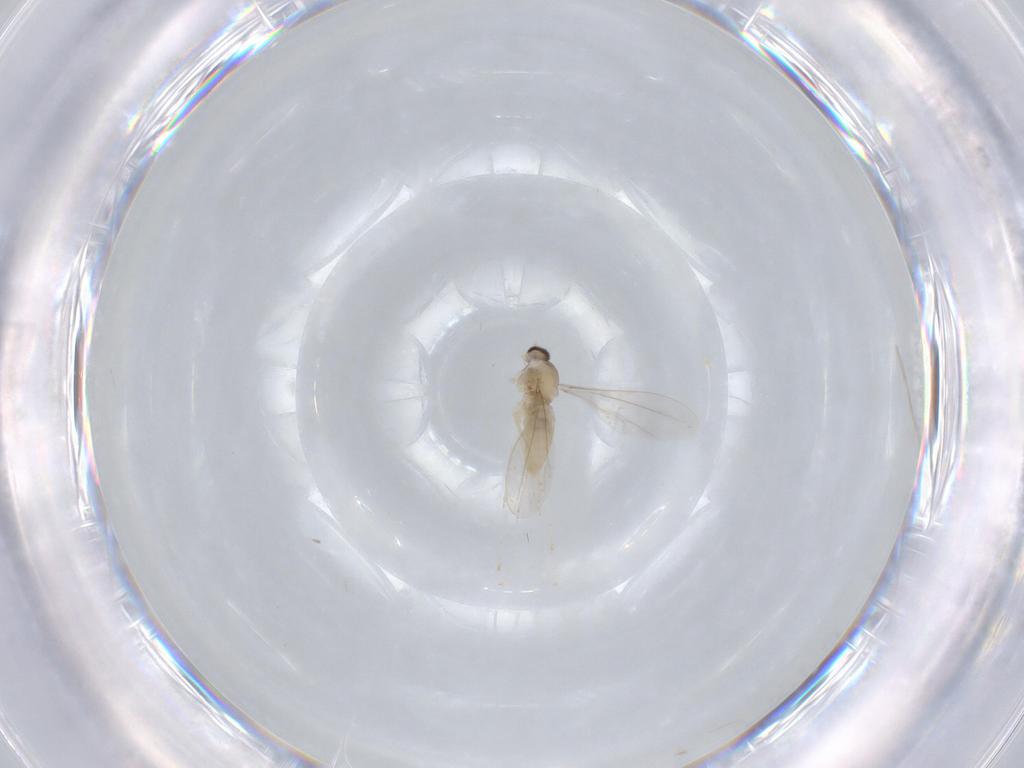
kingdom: Animalia
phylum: Arthropoda
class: Insecta
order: Diptera
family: Cecidomyiidae
